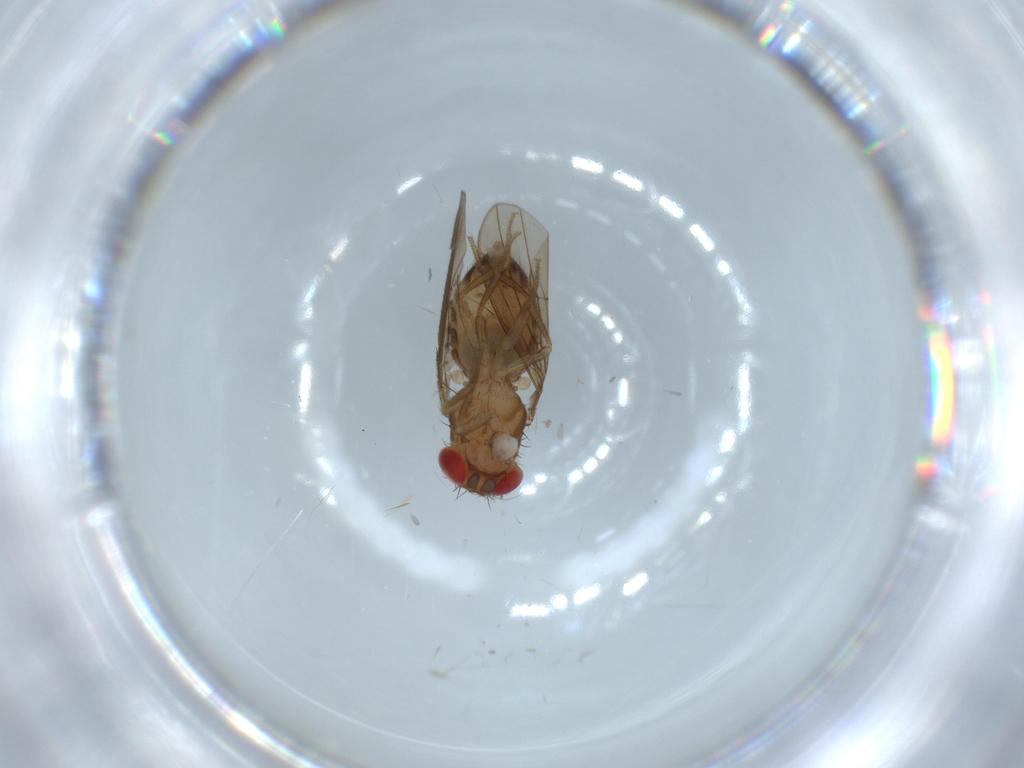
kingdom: Animalia
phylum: Arthropoda
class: Insecta
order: Diptera
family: Drosophilidae
